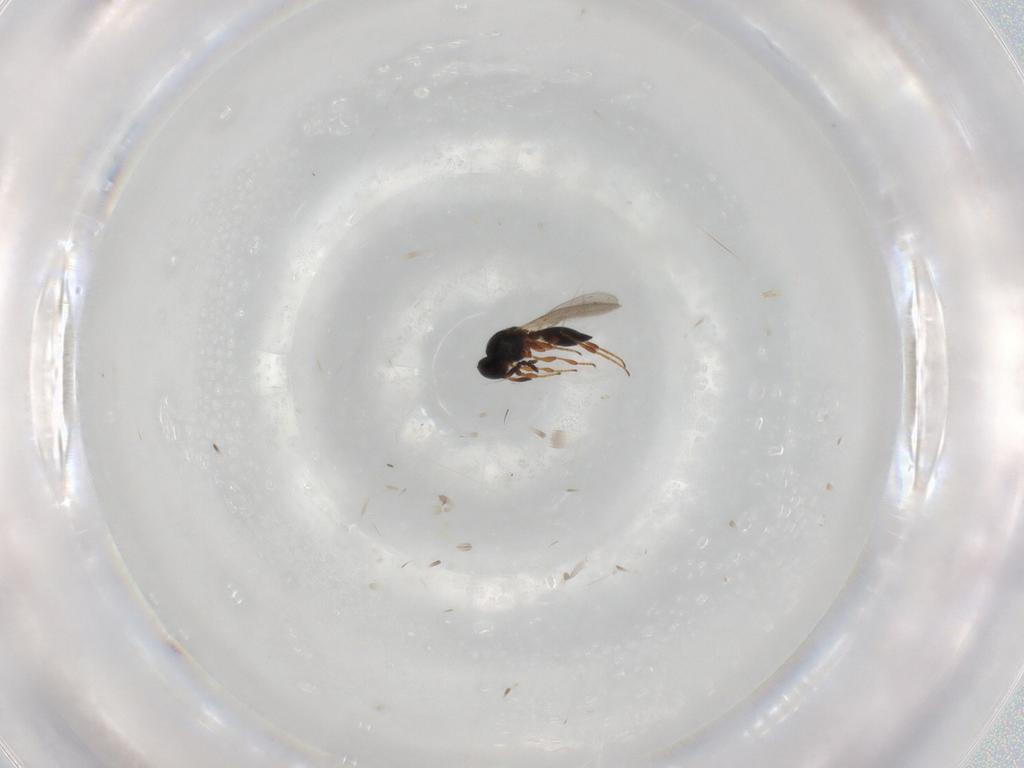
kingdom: Animalia
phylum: Arthropoda
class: Insecta
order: Hymenoptera
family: Platygastridae
